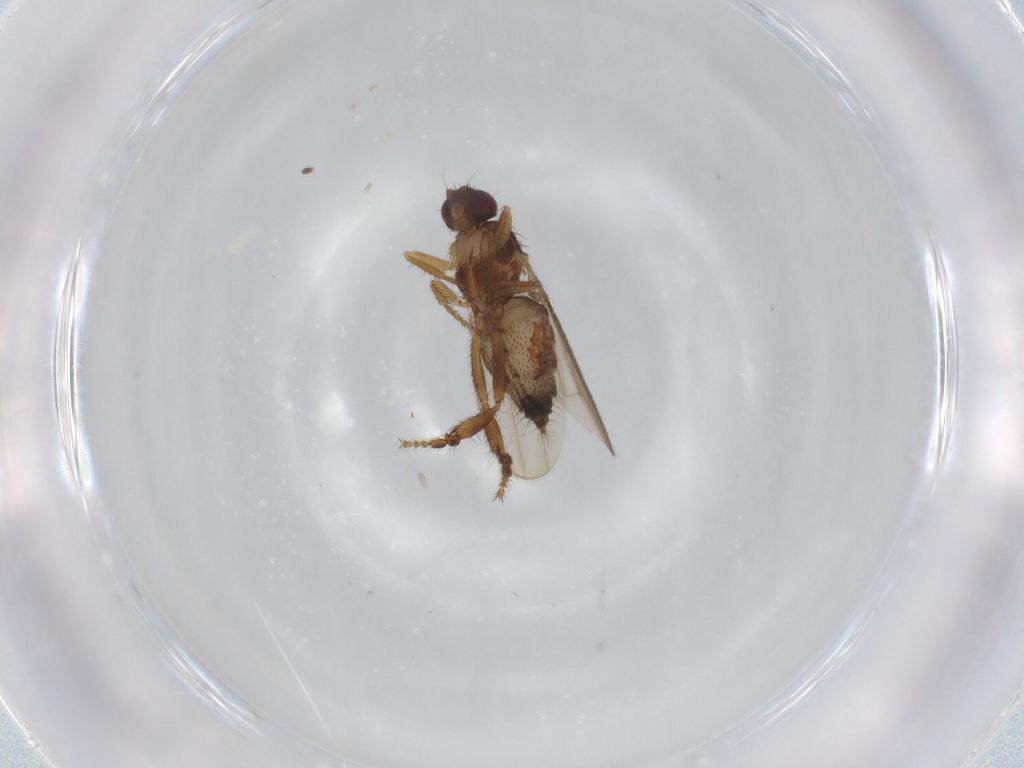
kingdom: Animalia
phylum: Arthropoda
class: Insecta
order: Diptera
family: Sphaeroceridae
